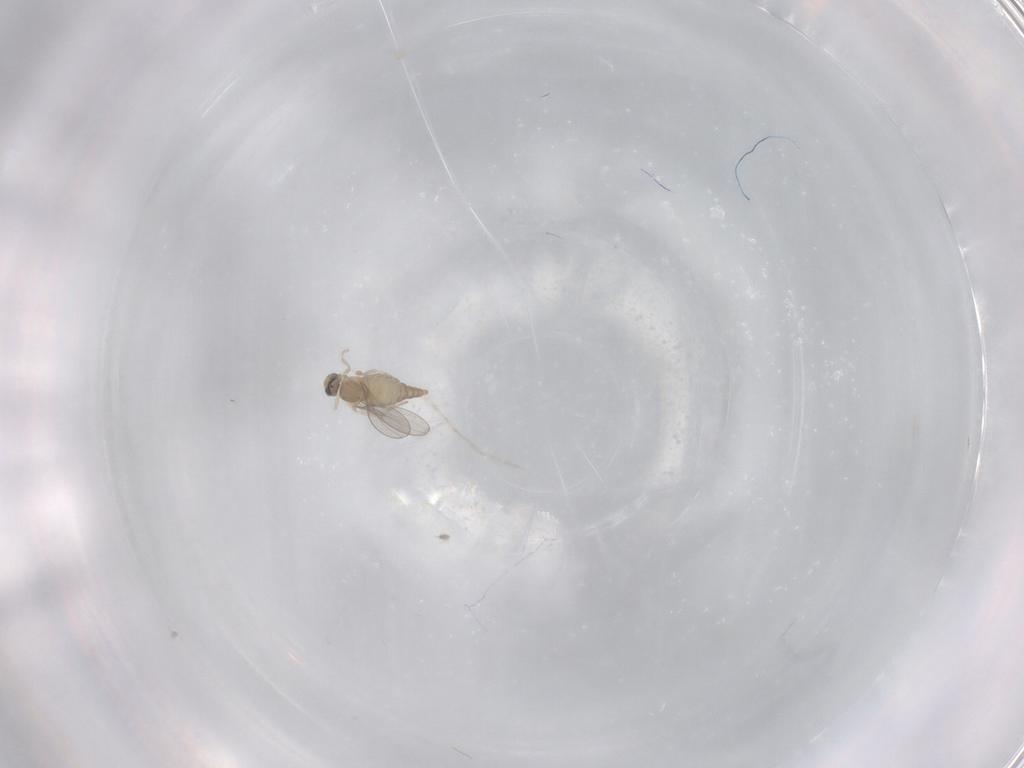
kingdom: Animalia
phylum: Arthropoda
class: Insecta
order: Diptera
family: Cecidomyiidae
